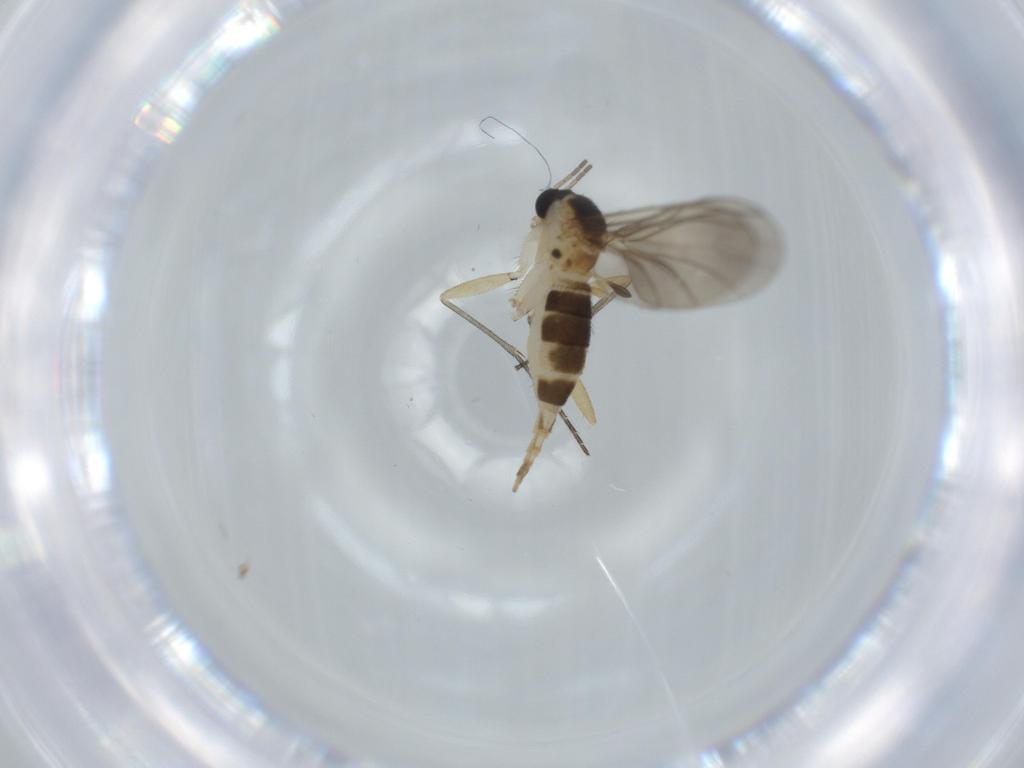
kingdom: Animalia
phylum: Arthropoda
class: Insecta
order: Diptera
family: Sciaridae
